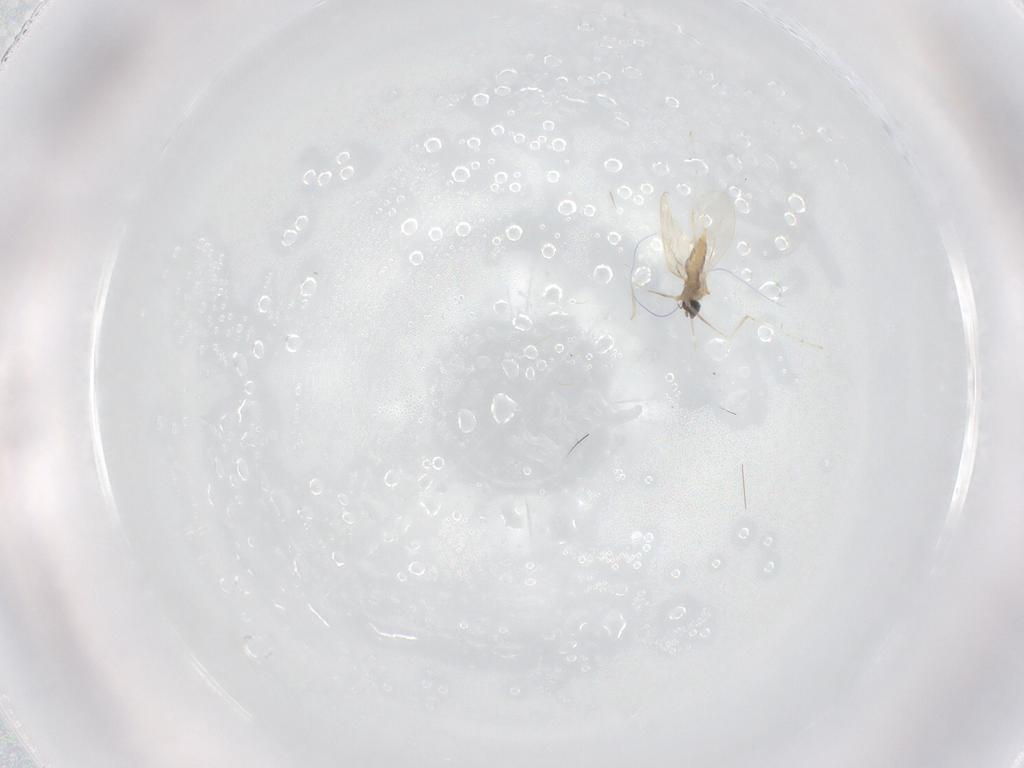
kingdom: Animalia
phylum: Arthropoda
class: Insecta
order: Diptera
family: Cecidomyiidae
